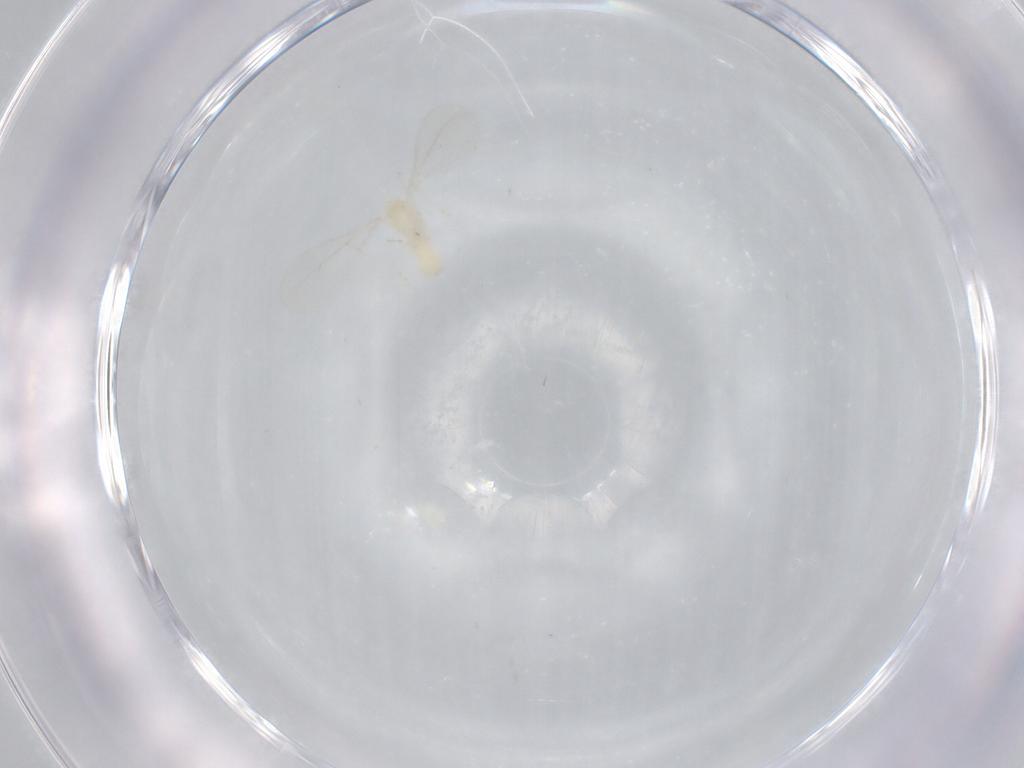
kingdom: Animalia
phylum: Arthropoda
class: Insecta
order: Diptera
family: Cecidomyiidae
